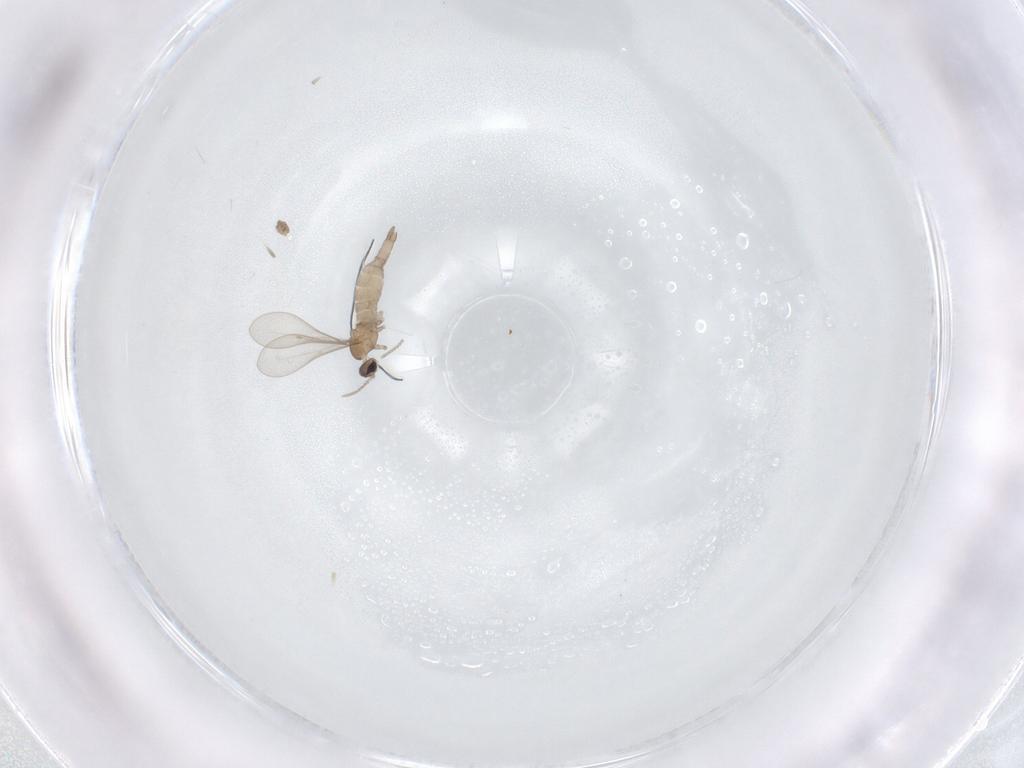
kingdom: Animalia
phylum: Arthropoda
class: Insecta
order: Diptera
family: Cecidomyiidae
